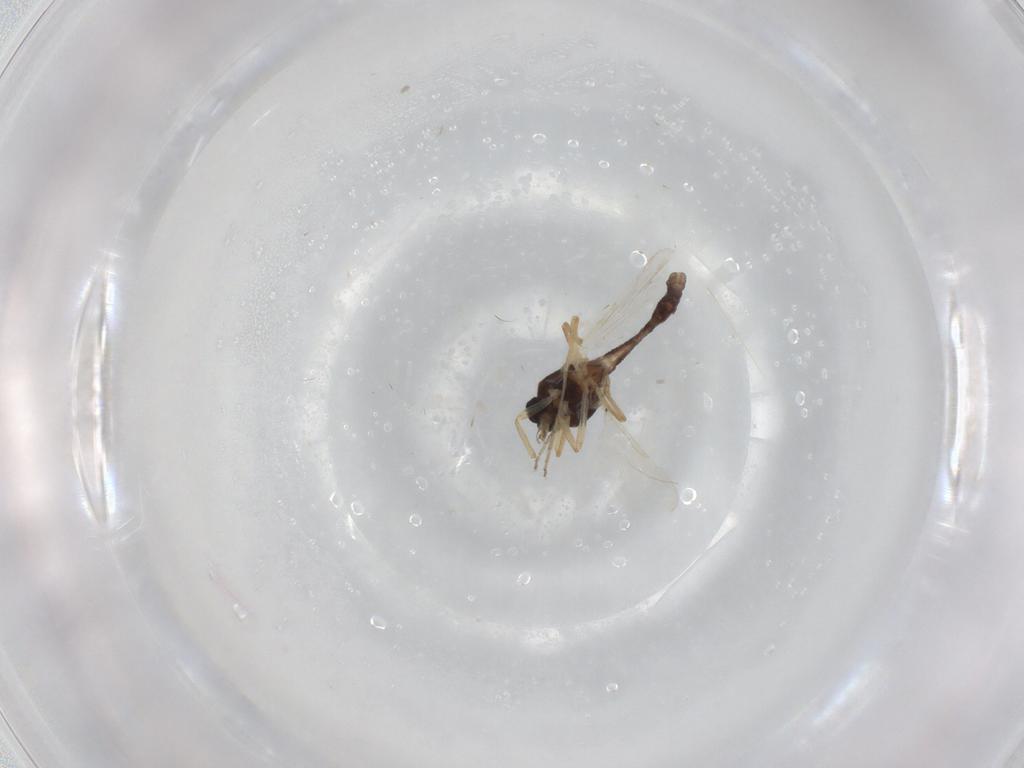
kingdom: Animalia
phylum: Arthropoda
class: Insecta
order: Diptera
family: Ceratopogonidae
